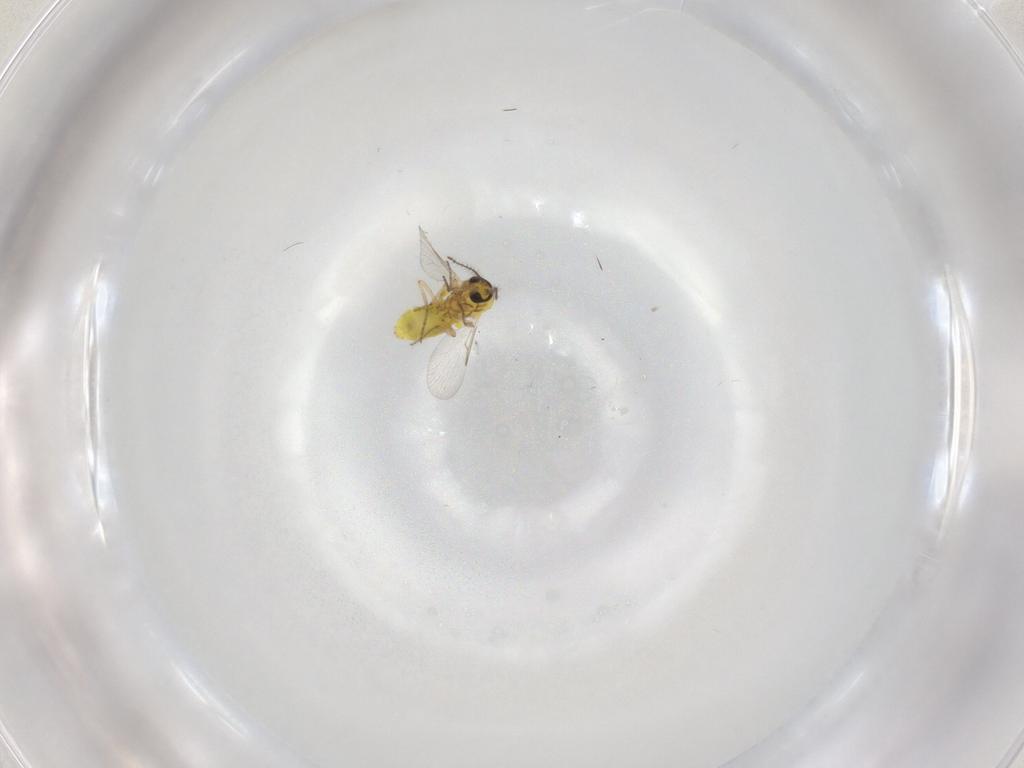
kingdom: Animalia
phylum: Arthropoda
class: Insecta
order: Diptera
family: Ceratopogonidae
